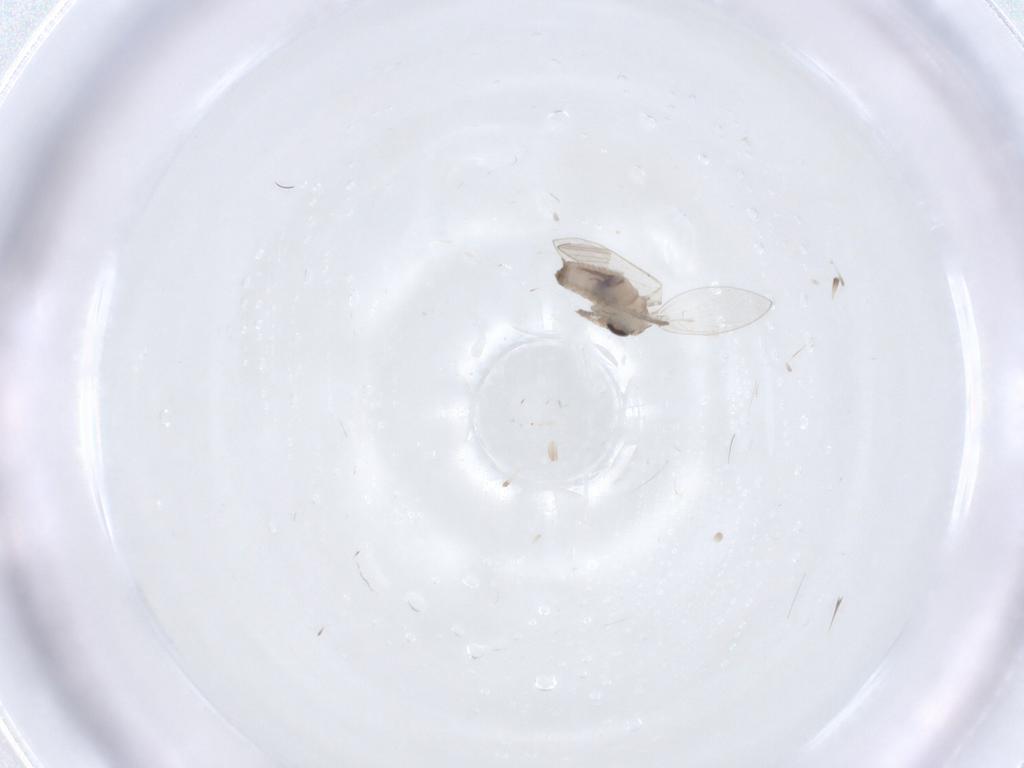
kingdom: Animalia
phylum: Arthropoda
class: Insecta
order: Diptera
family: Psychodidae
